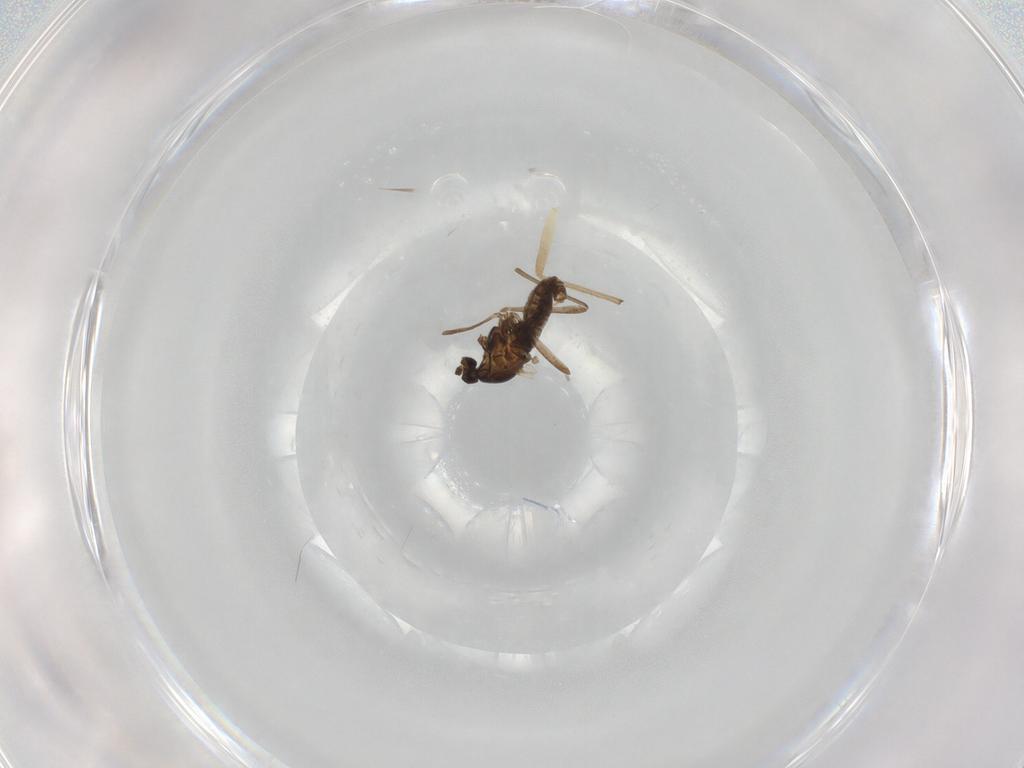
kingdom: Animalia
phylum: Arthropoda
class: Insecta
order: Diptera
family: Chironomidae
